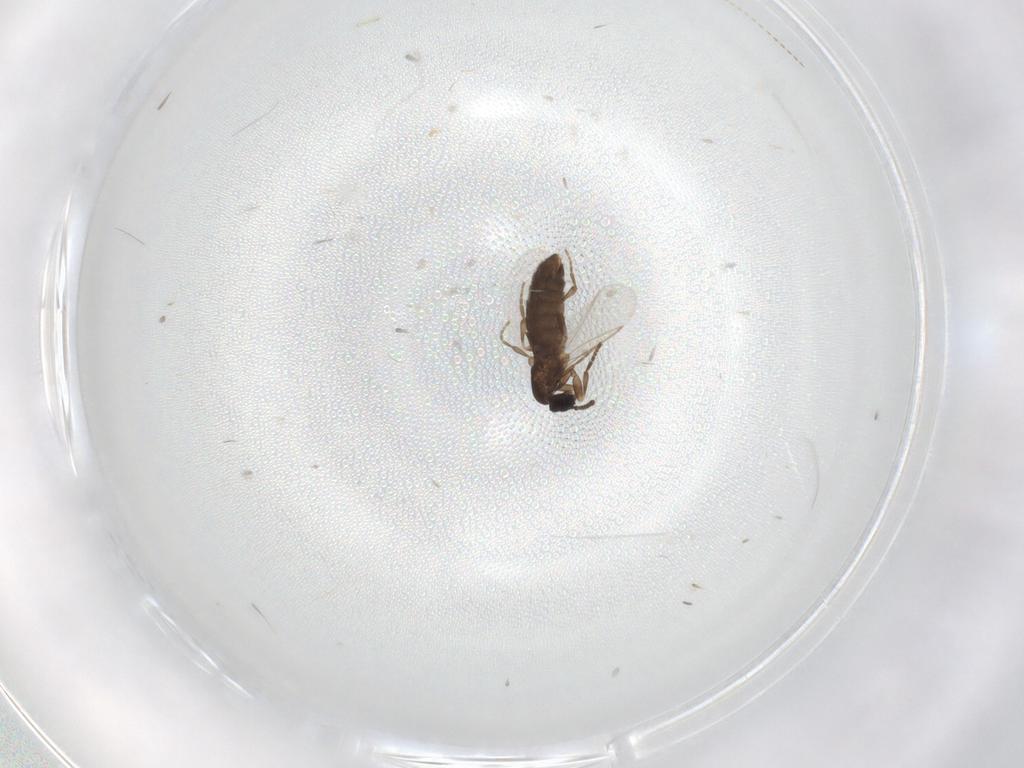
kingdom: Animalia
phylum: Arthropoda
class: Insecta
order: Diptera
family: Scatopsidae
